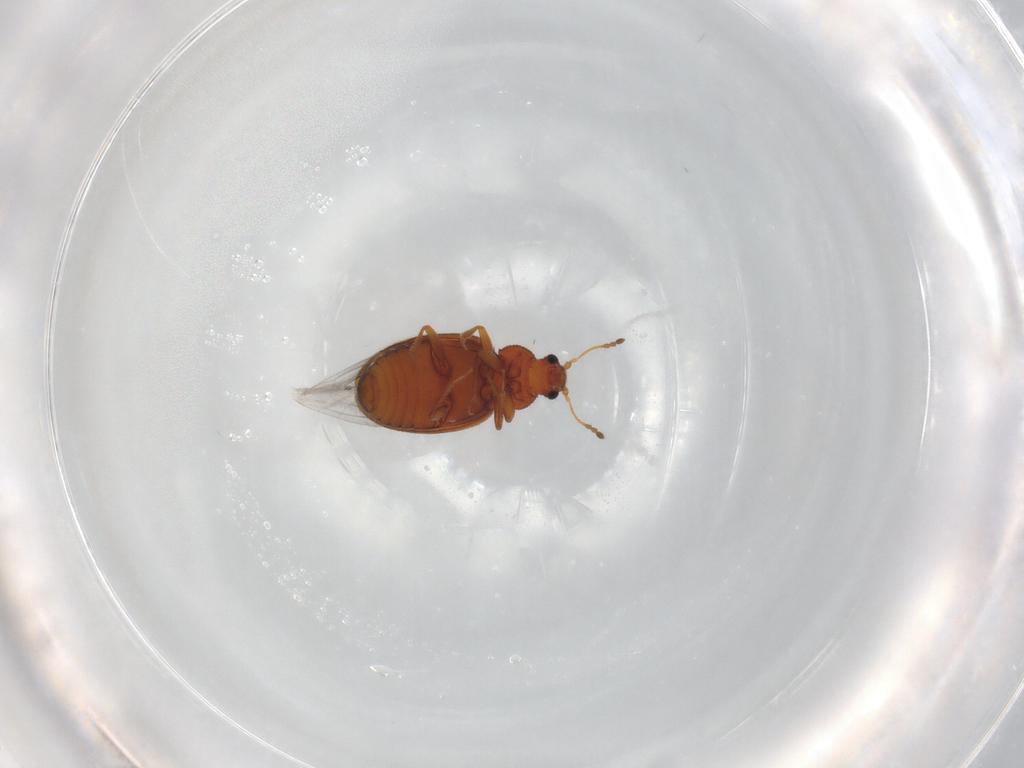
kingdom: Animalia
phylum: Arthropoda
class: Insecta
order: Coleoptera
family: Latridiidae
